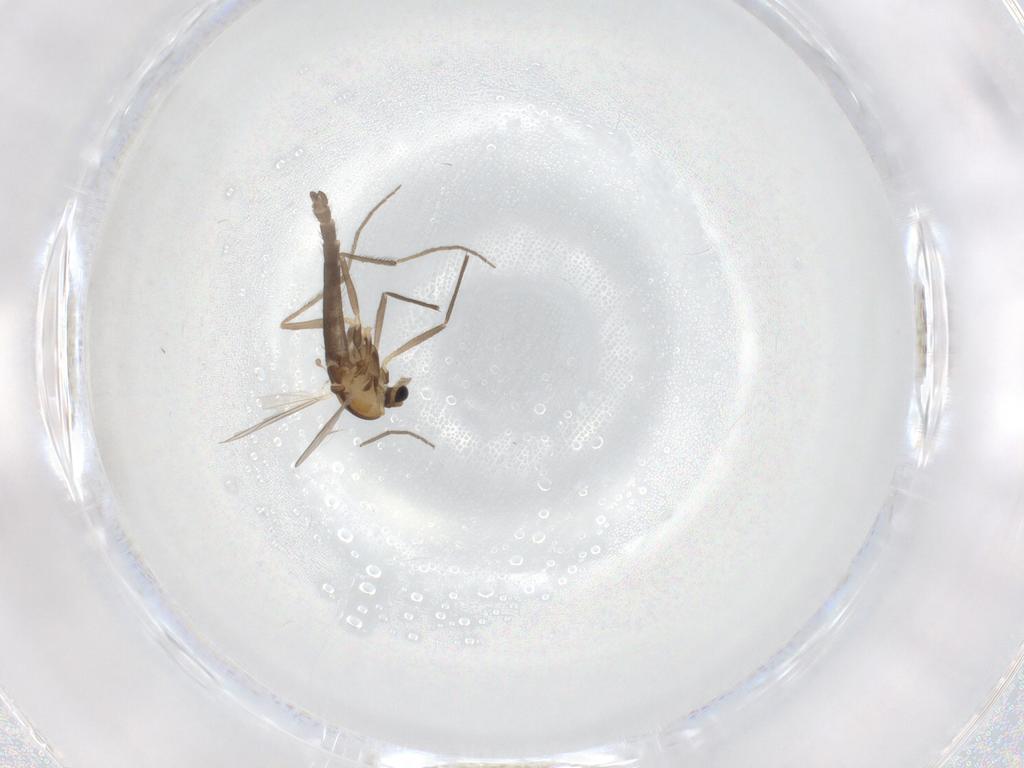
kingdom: Animalia
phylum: Arthropoda
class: Insecta
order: Diptera
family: Chironomidae
